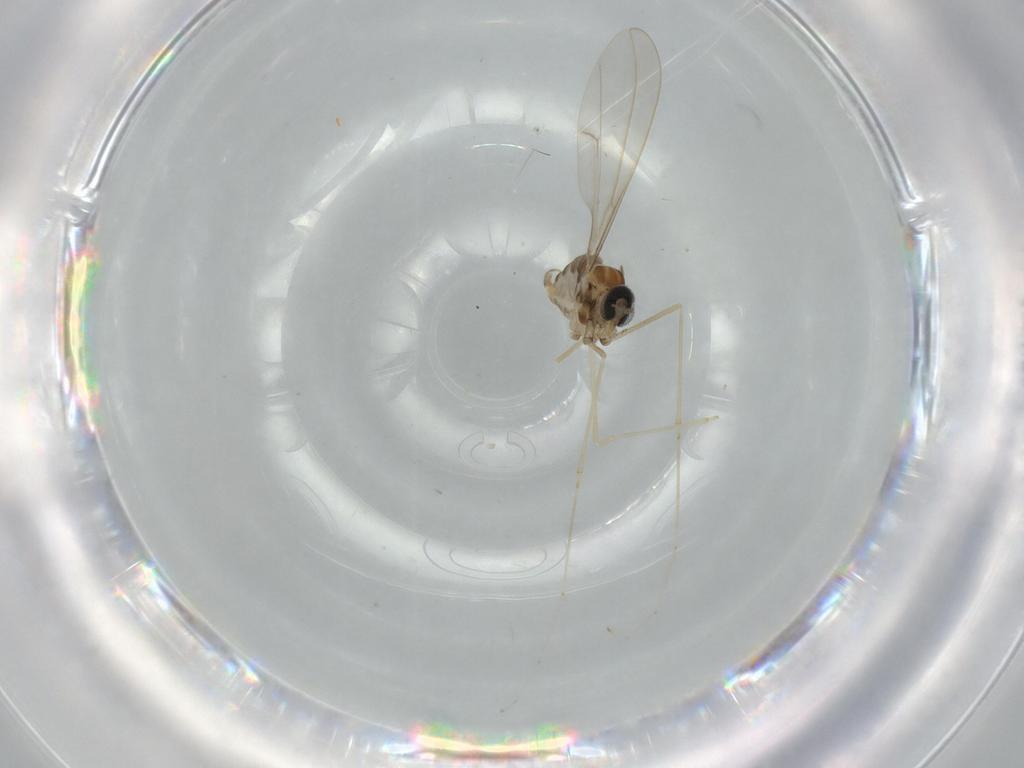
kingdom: Animalia
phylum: Arthropoda
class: Insecta
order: Diptera
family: Cecidomyiidae
